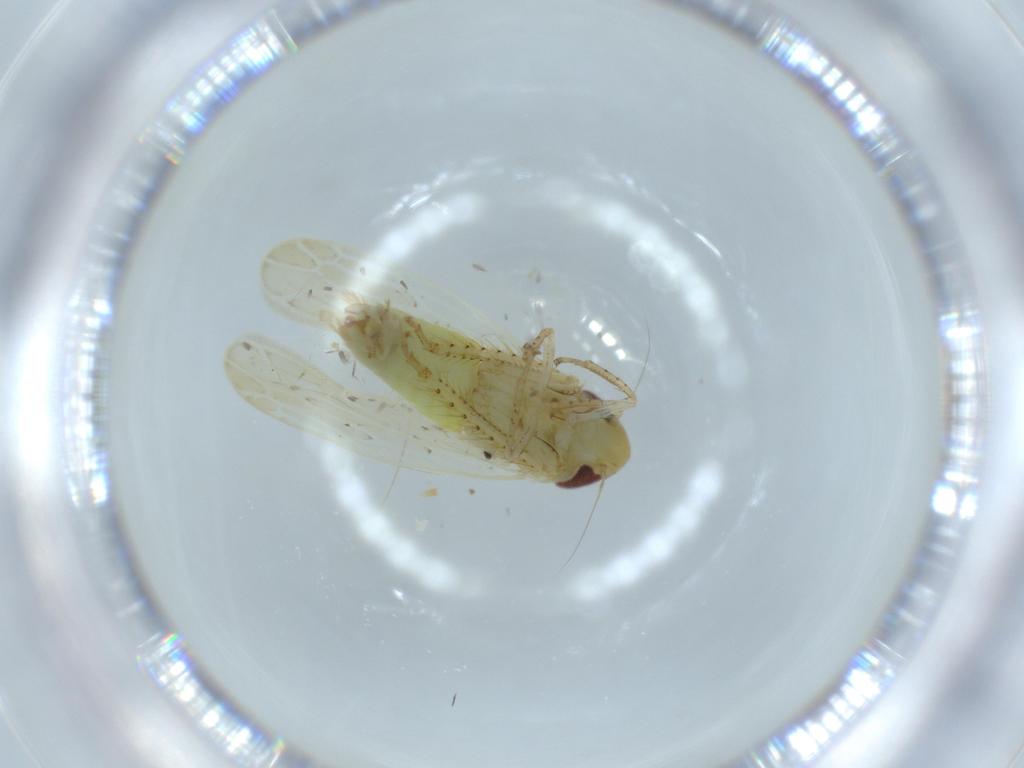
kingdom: Animalia
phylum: Arthropoda
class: Insecta
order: Hemiptera
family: Cicadellidae
